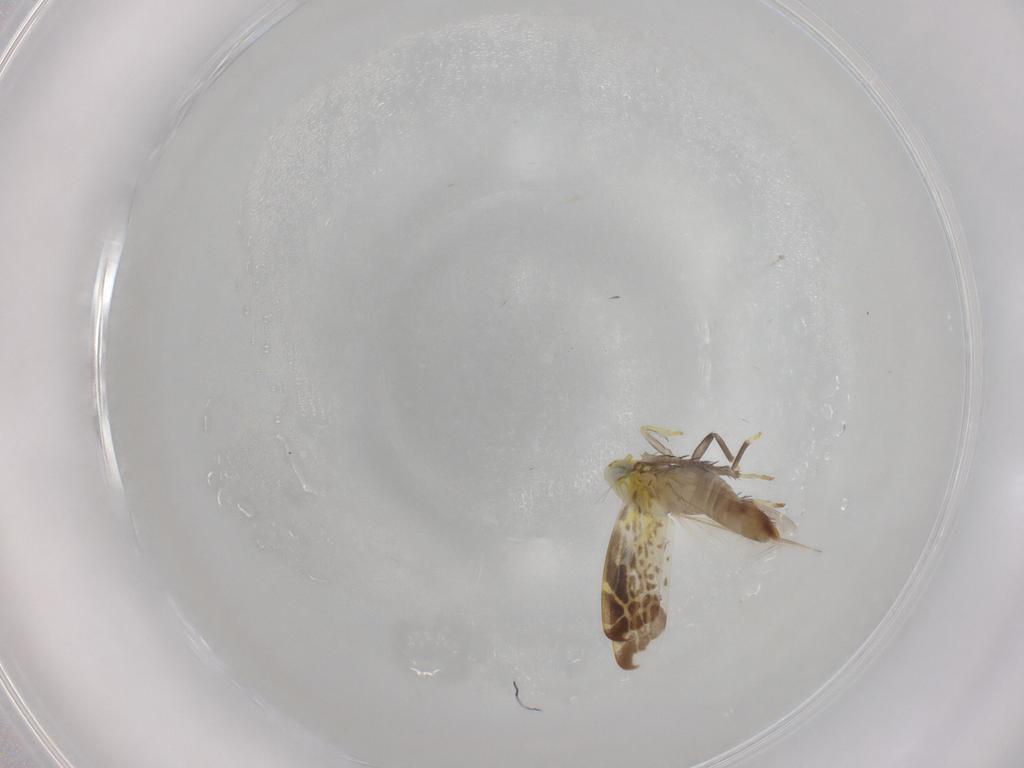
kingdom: Animalia
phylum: Arthropoda
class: Insecta
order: Hemiptera
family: Cicadellidae
